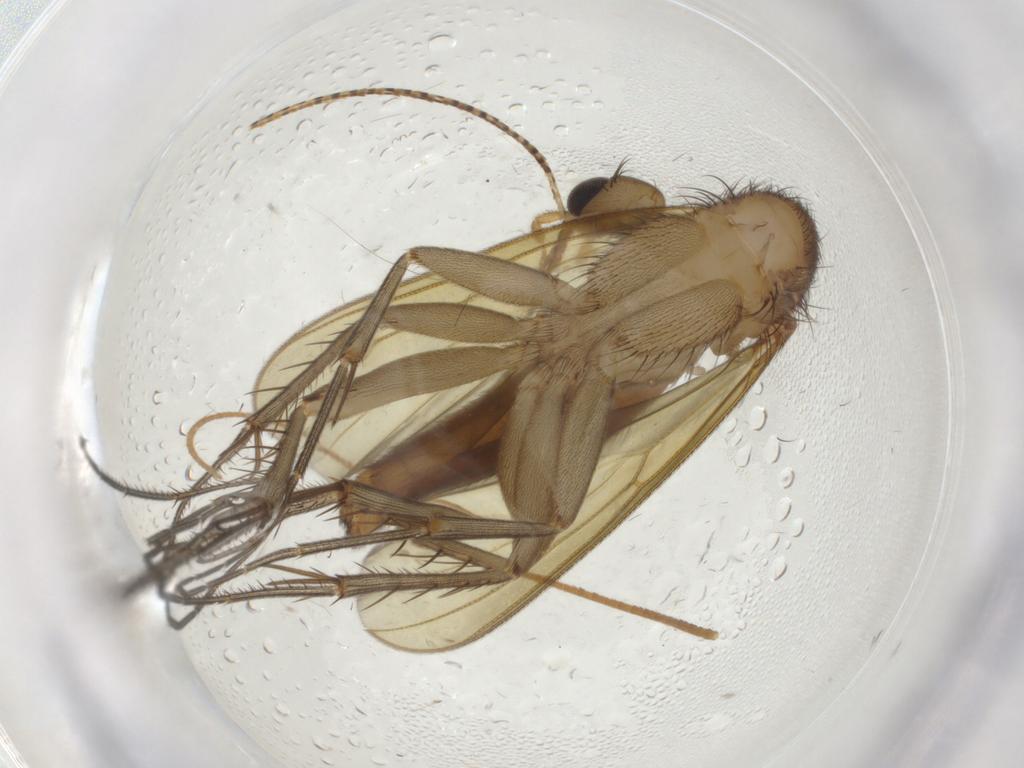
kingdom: Animalia
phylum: Arthropoda
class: Insecta
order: Diptera
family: Mycetophilidae
